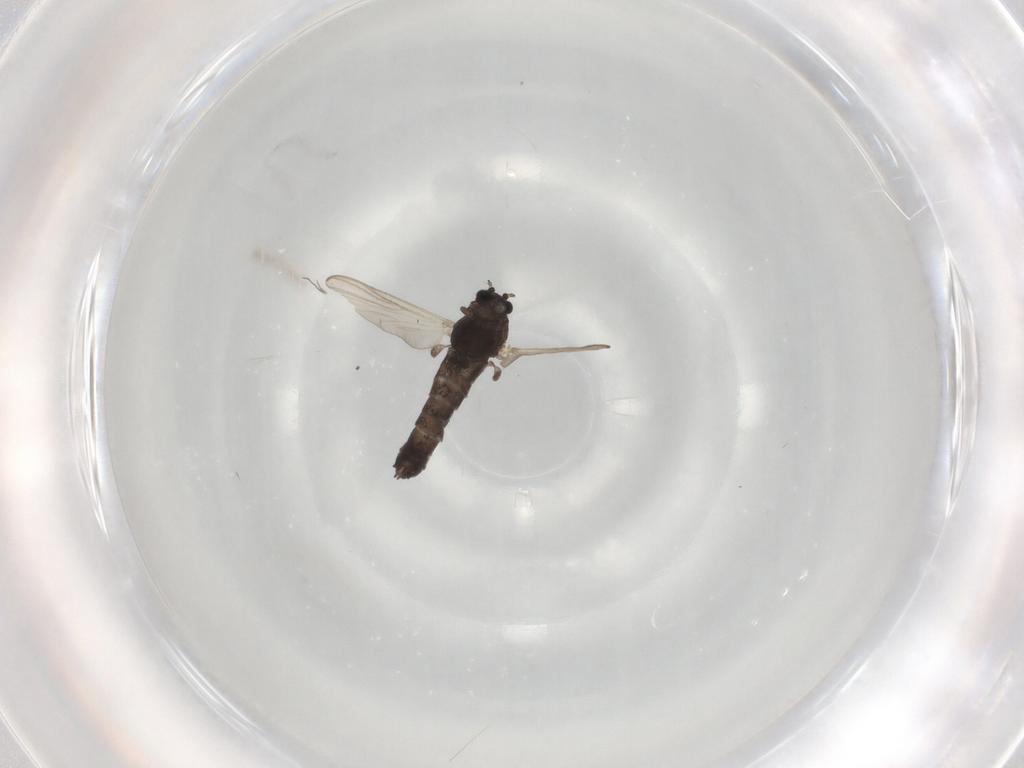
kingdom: Animalia
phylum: Arthropoda
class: Insecta
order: Diptera
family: Chironomidae
